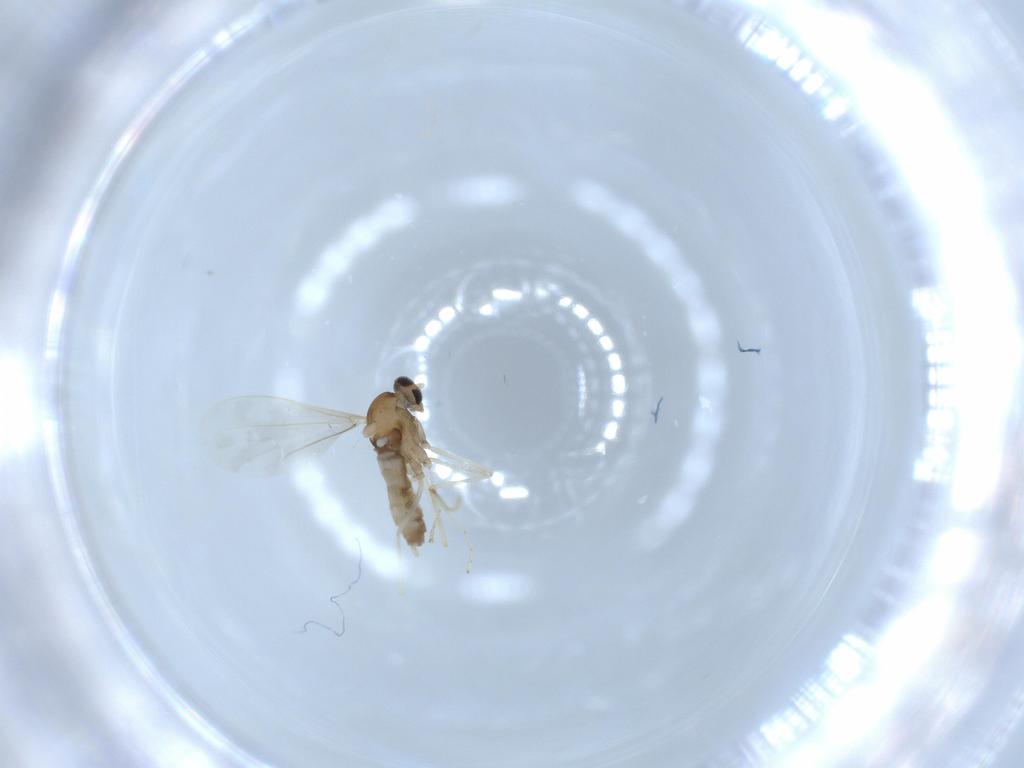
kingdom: Animalia
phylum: Arthropoda
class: Insecta
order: Diptera
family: Cecidomyiidae
